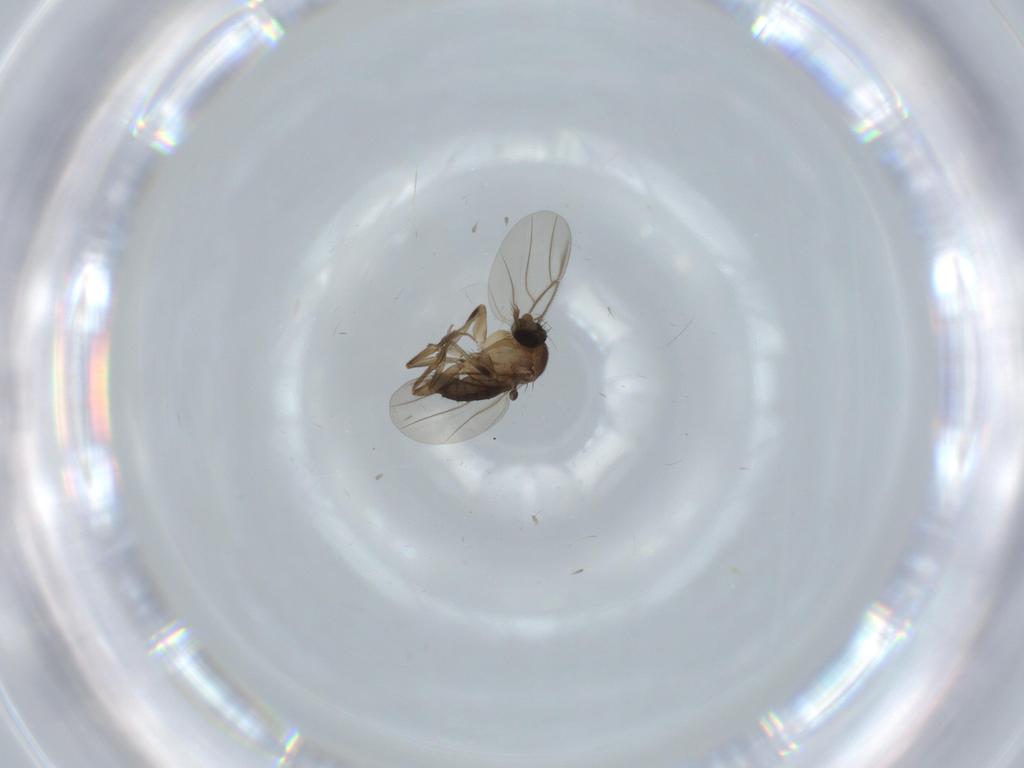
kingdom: Animalia
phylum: Arthropoda
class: Insecta
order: Diptera
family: Phoridae
